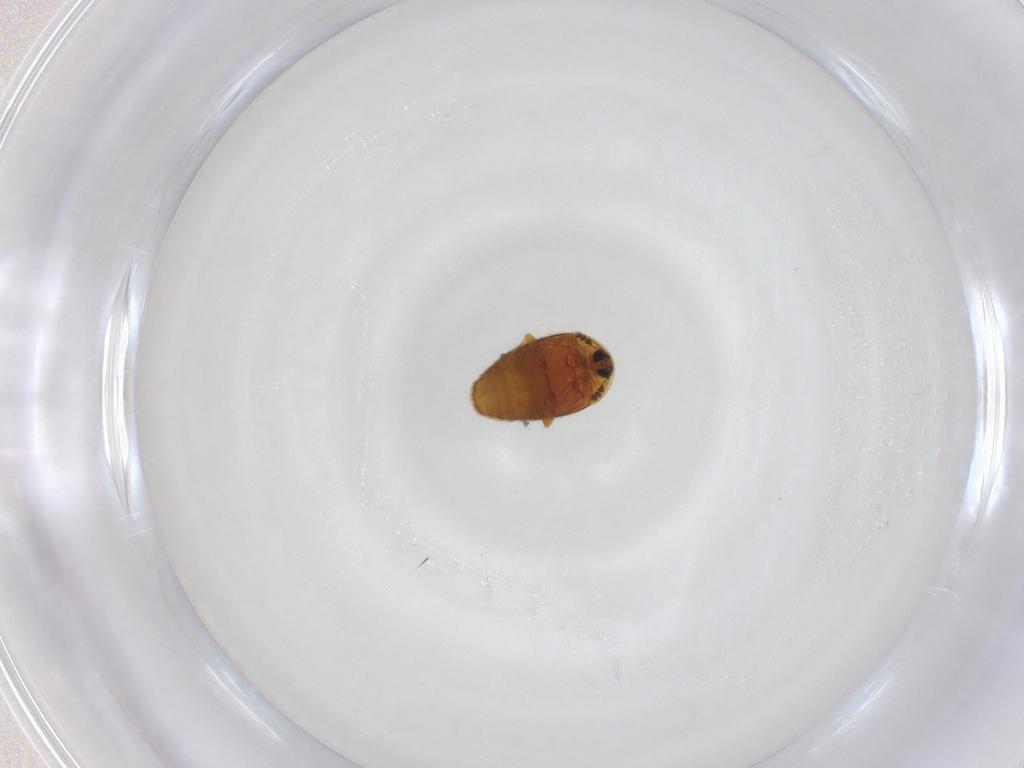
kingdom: Animalia
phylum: Arthropoda
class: Insecta
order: Coleoptera
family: Corylophidae
